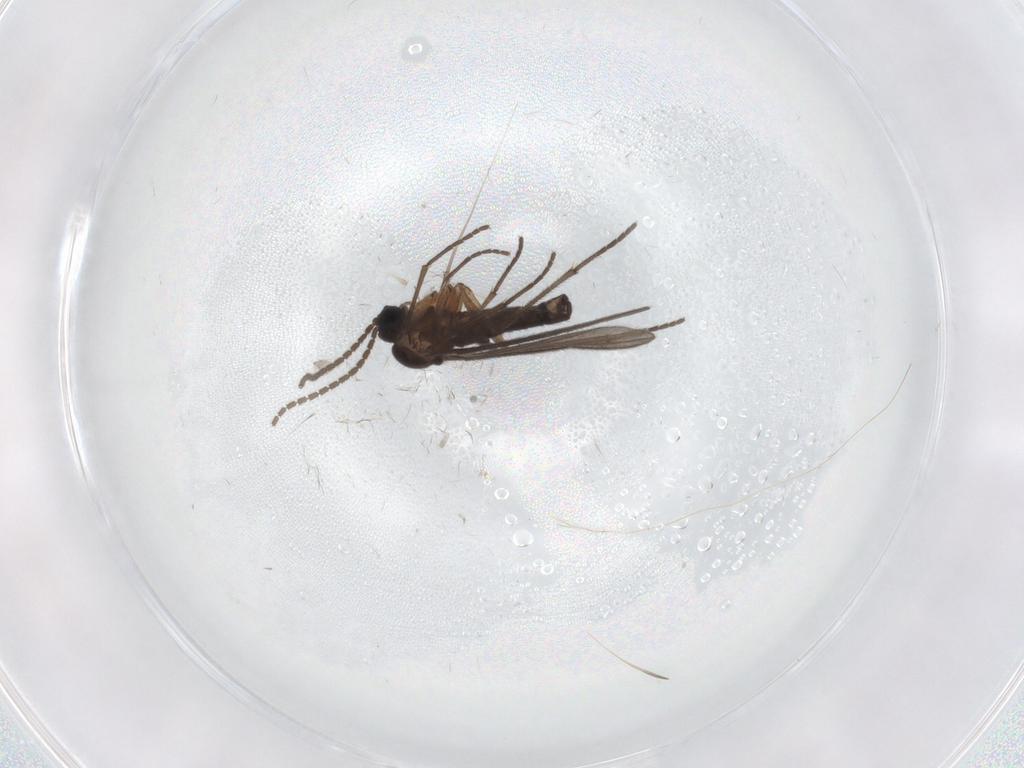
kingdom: Animalia
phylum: Arthropoda
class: Insecta
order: Diptera
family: Sciaridae
